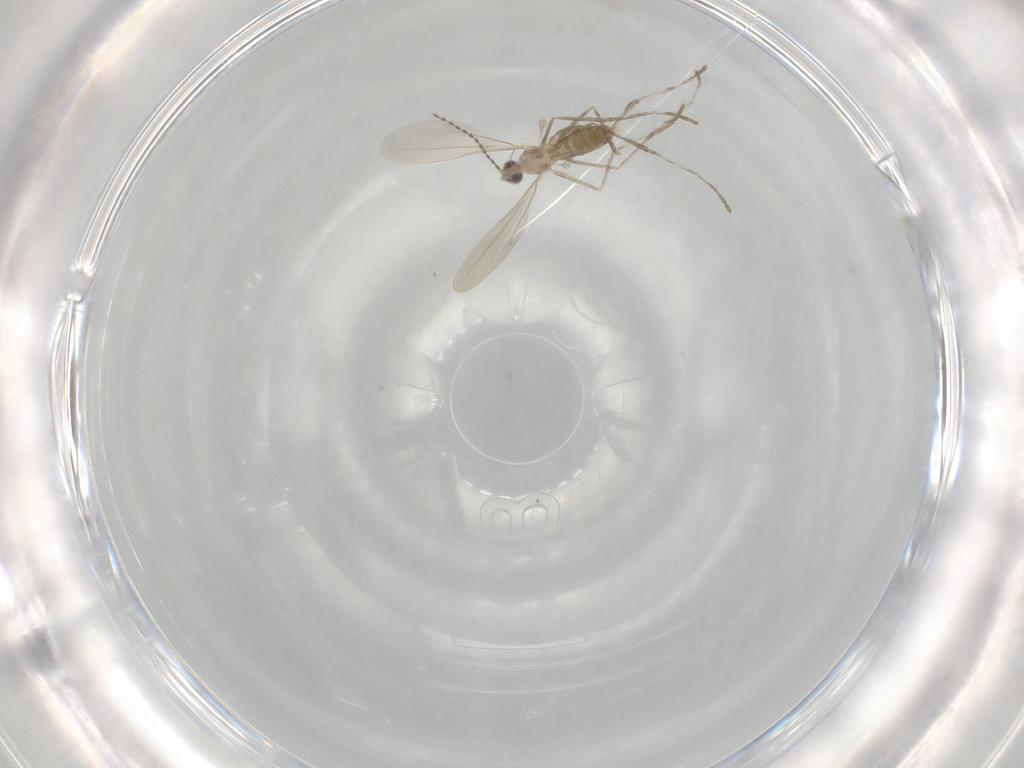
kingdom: Animalia
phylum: Arthropoda
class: Insecta
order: Diptera
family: Cecidomyiidae
